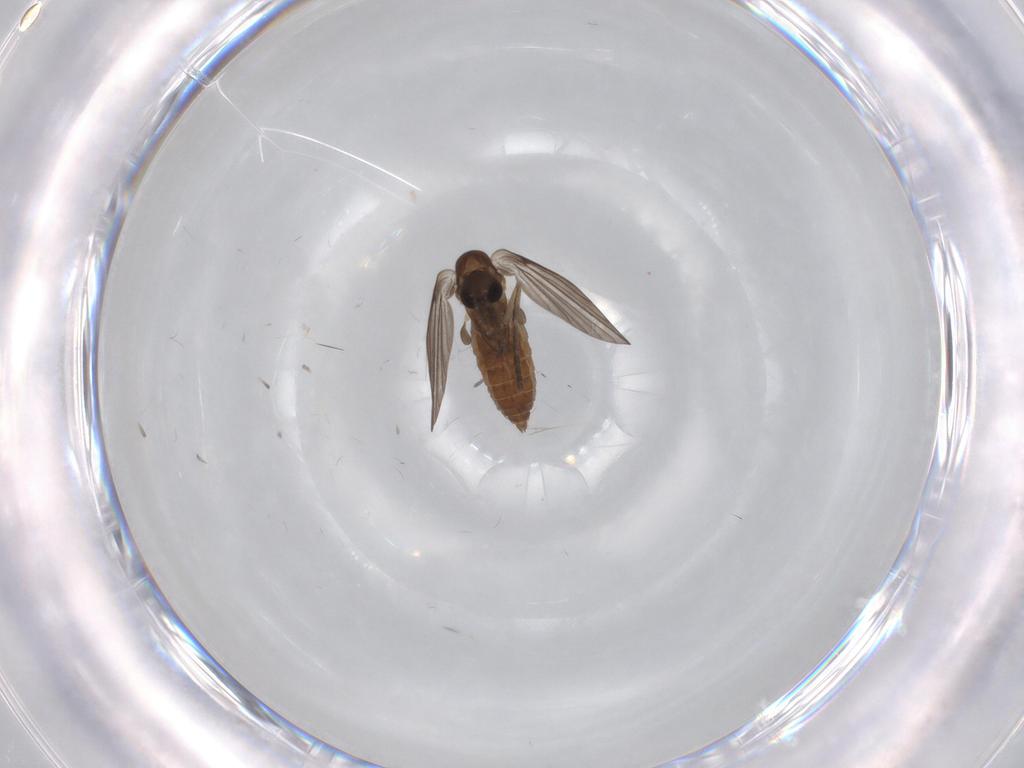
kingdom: Animalia
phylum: Arthropoda
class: Insecta
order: Diptera
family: Psychodidae
